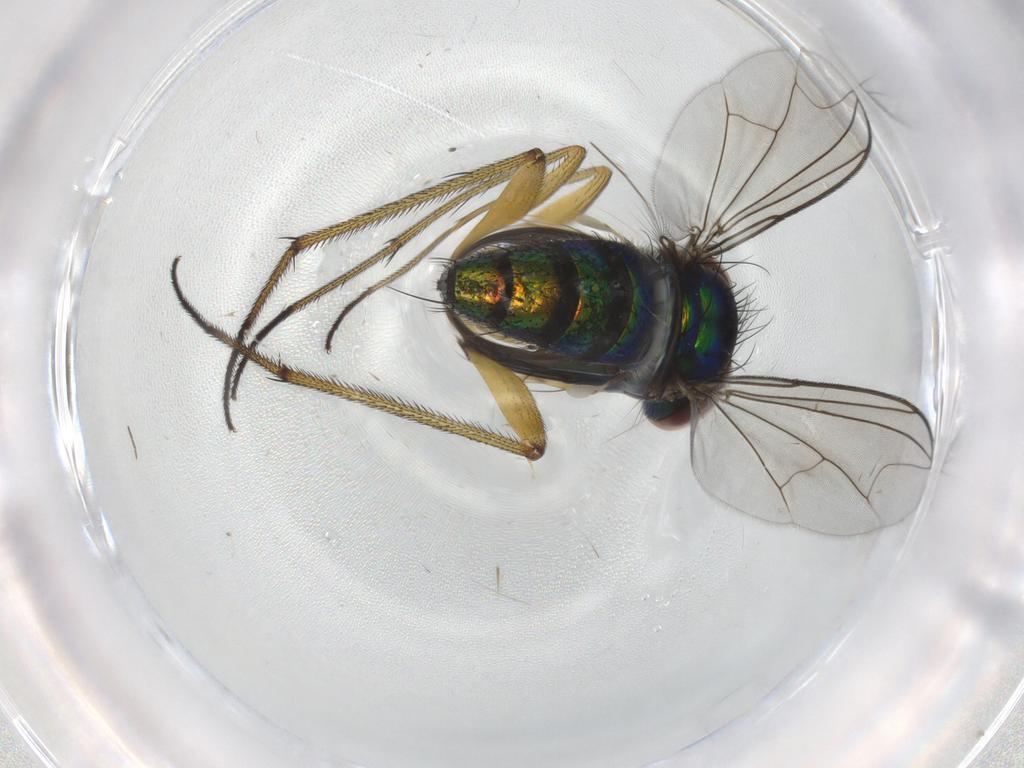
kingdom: Animalia
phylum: Arthropoda
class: Insecta
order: Diptera
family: Dolichopodidae
